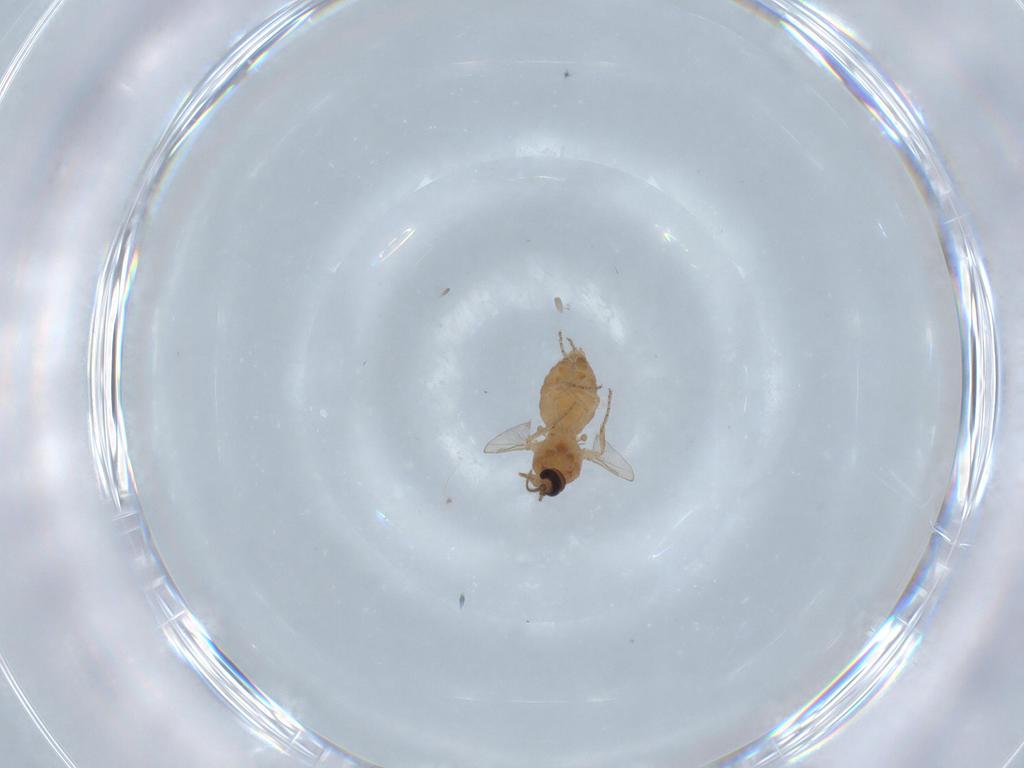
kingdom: Animalia
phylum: Arthropoda
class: Insecta
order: Diptera
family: Ceratopogonidae
